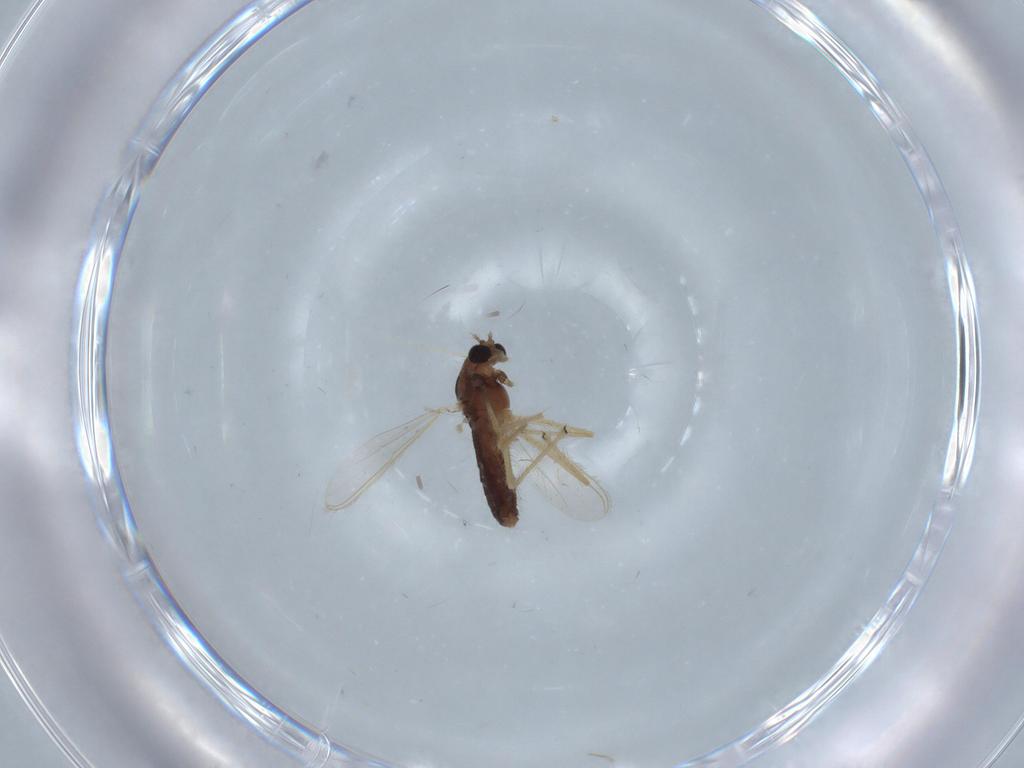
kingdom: Animalia
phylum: Arthropoda
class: Insecta
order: Diptera
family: Chironomidae
